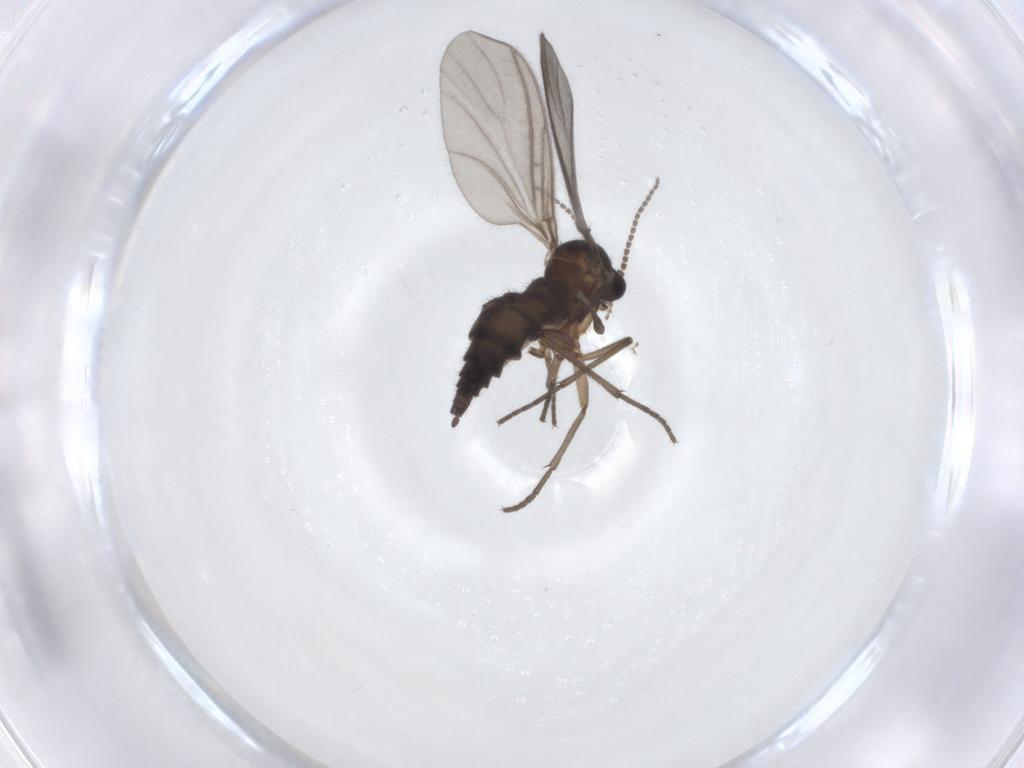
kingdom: Animalia
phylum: Arthropoda
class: Insecta
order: Diptera
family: Sciaridae
